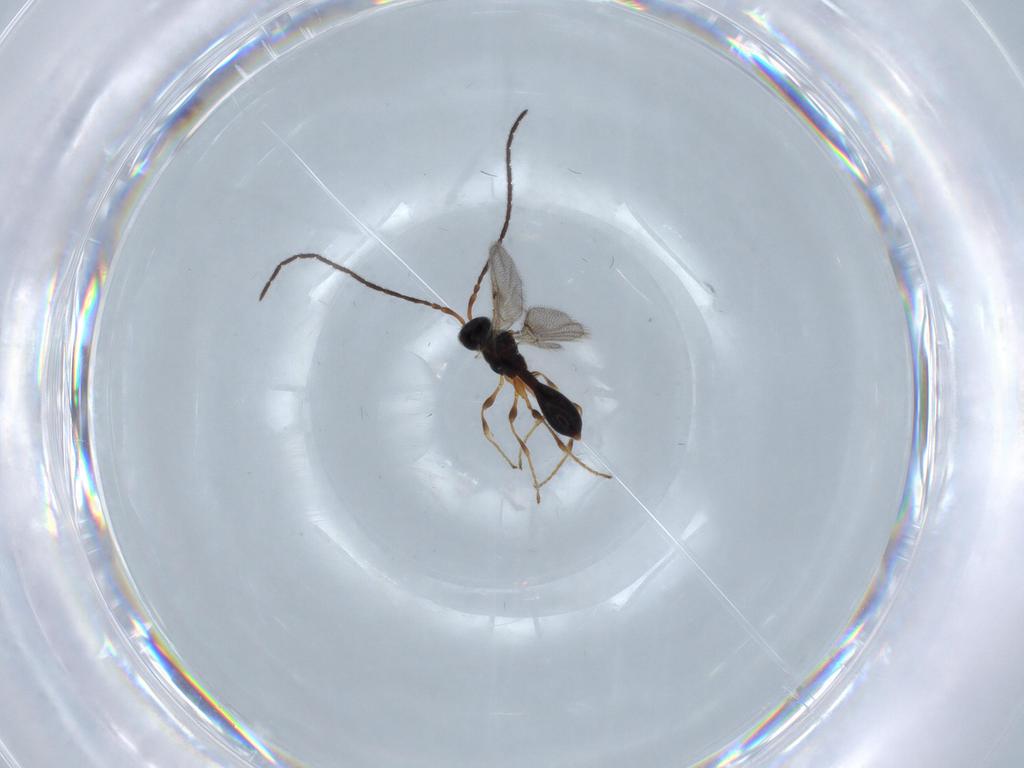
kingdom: Animalia
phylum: Arthropoda
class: Insecta
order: Hymenoptera
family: Diapriidae
